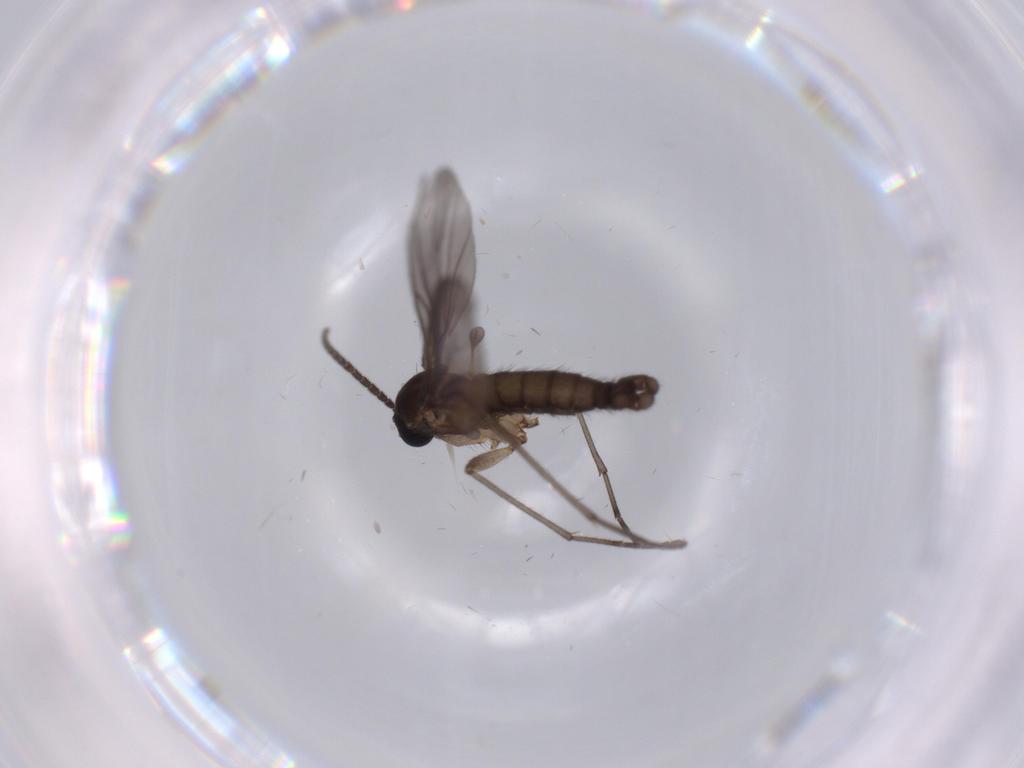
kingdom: Animalia
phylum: Arthropoda
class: Insecta
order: Diptera
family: Sciaridae
